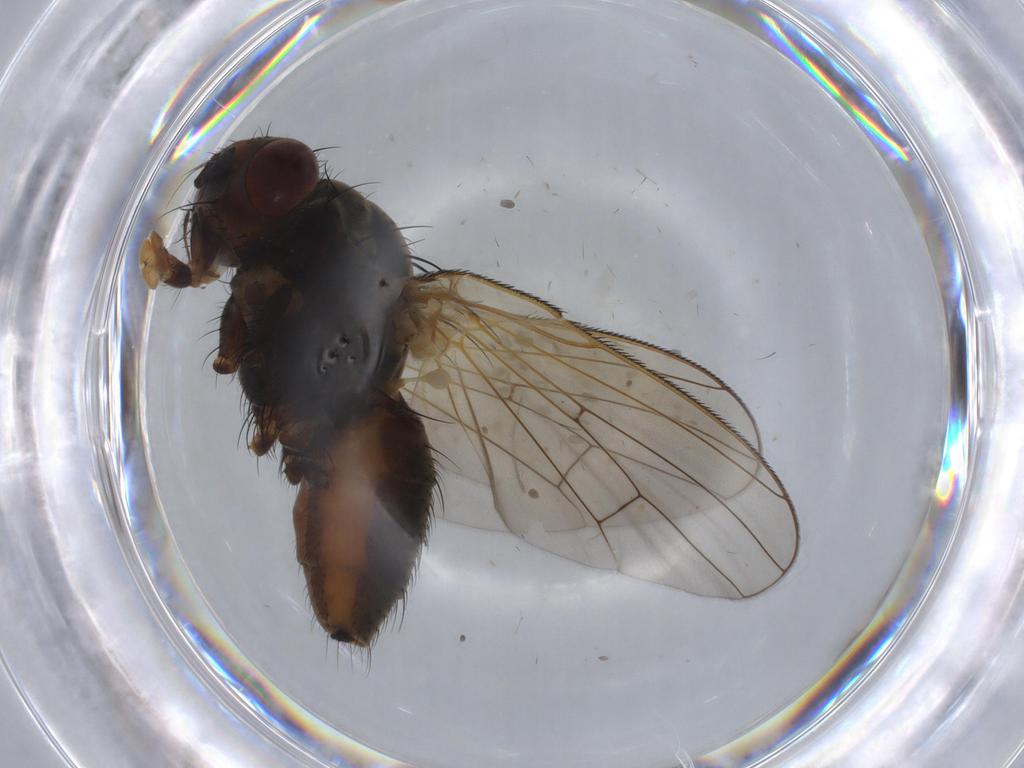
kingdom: Animalia
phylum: Arthropoda
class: Insecta
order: Diptera
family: Anthomyiidae
